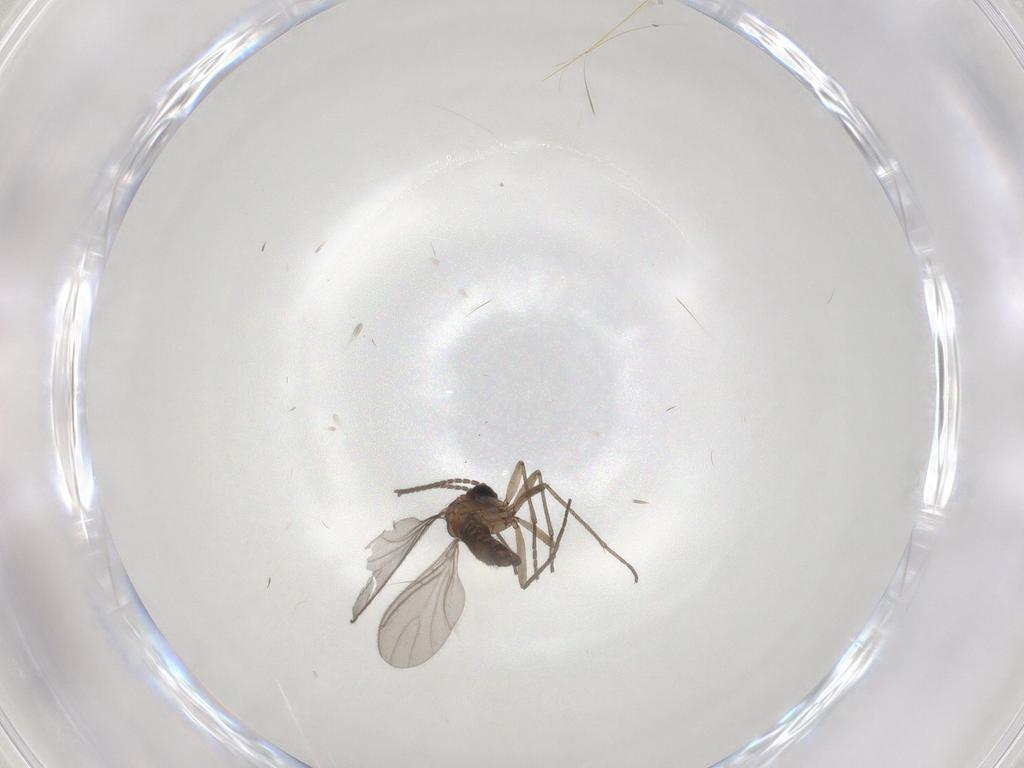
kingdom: Animalia
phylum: Arthropoda
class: Insecta
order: Diptera
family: Sciaridae
